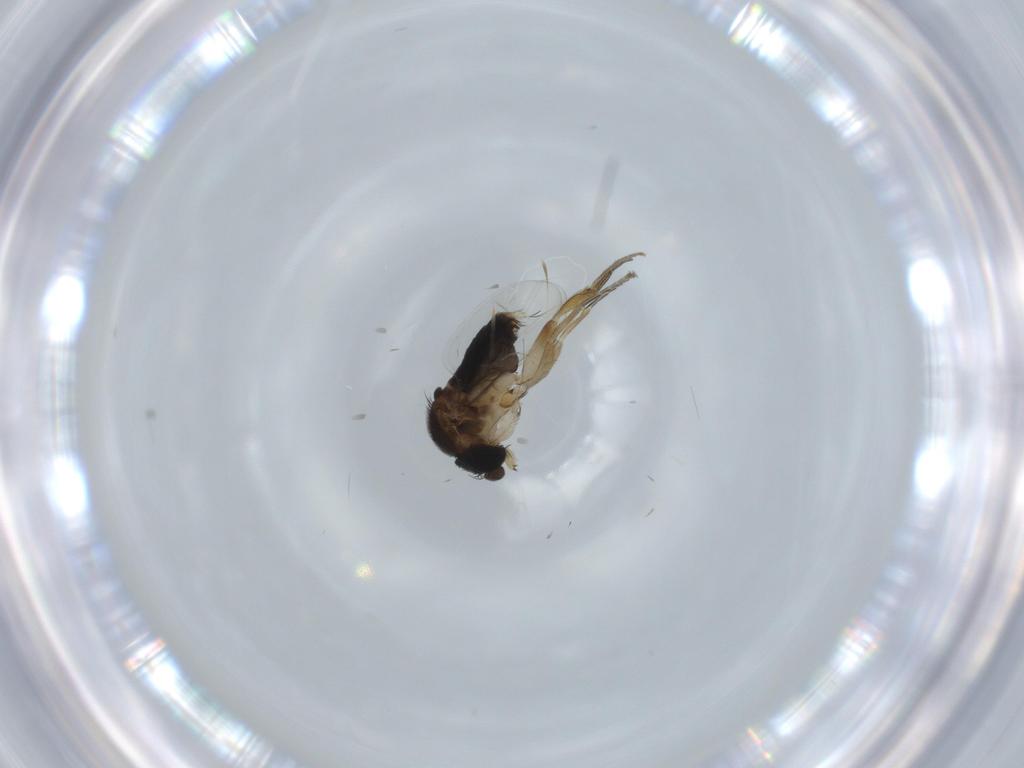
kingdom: Animalia
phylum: Arthropoda
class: Insecta
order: Diptera
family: Phoridae
